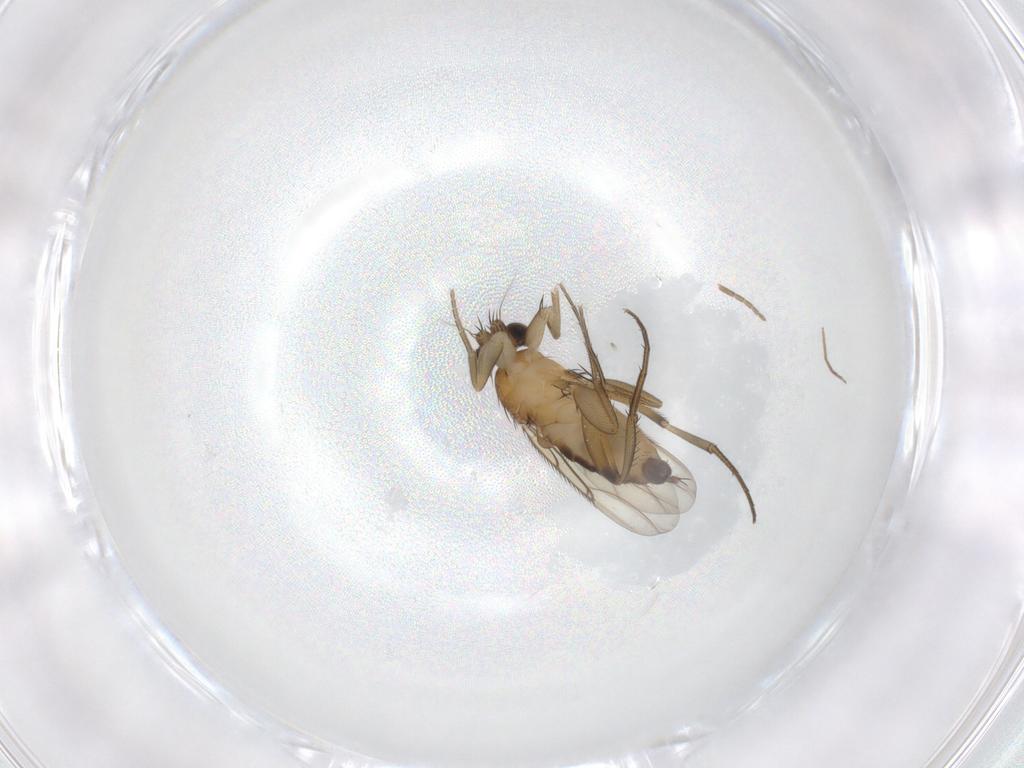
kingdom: Animalia
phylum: Arthropoda
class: Insecta
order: Diptera
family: Phoridae
